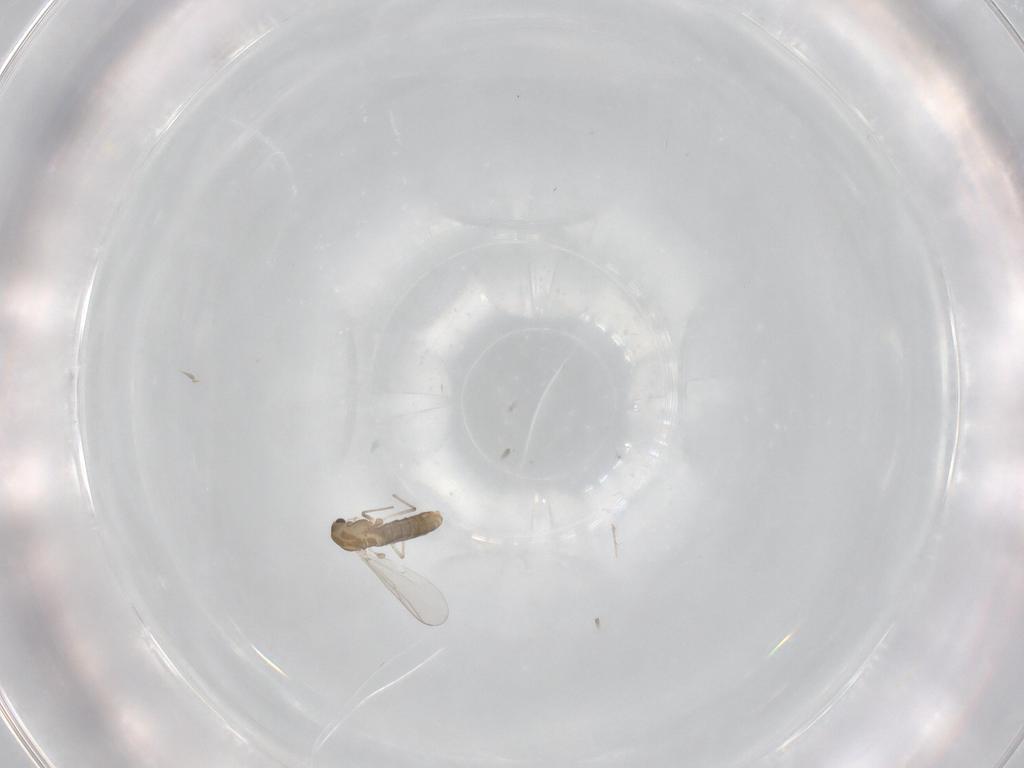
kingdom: Animalia
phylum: Arthropoda
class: Insecta
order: Diptera
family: Chironomidae
